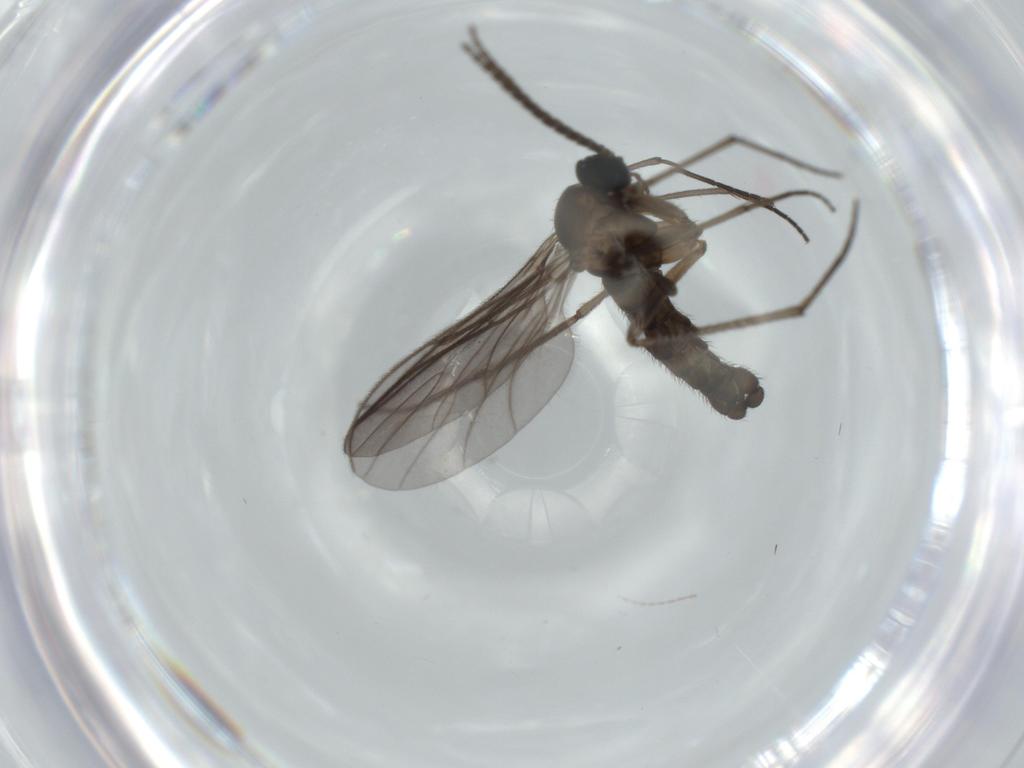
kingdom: Animalia
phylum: Arthropoda
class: Insecta
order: Diptera
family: Sciaridae
